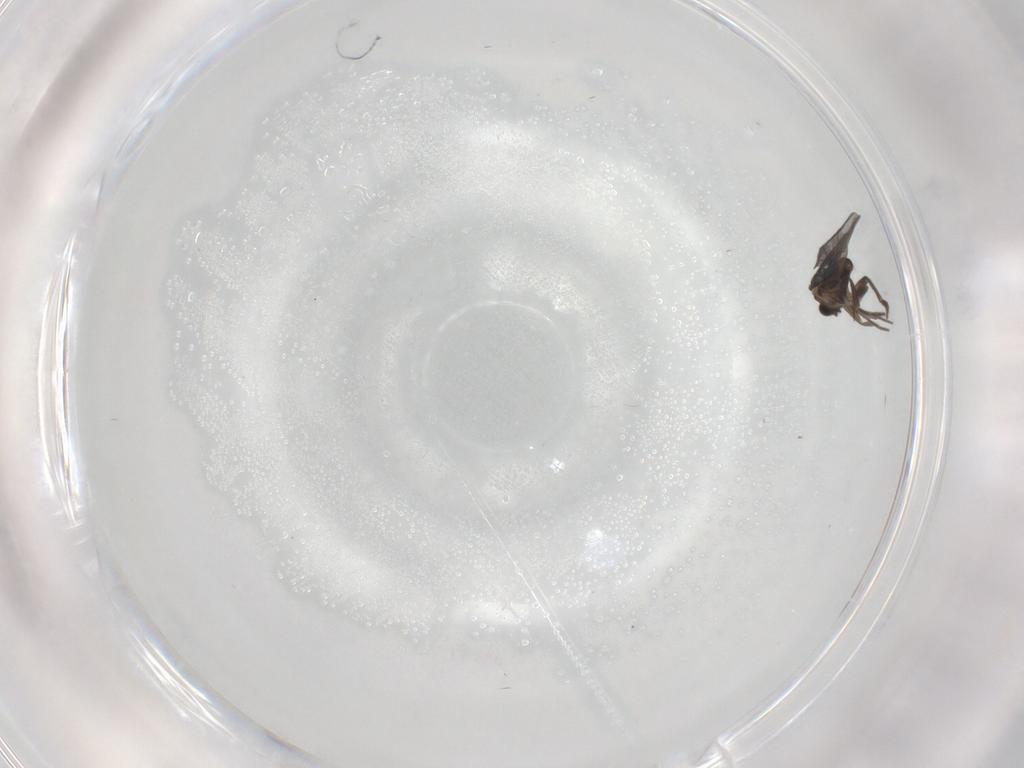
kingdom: Animalia
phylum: Arthropoda
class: Insecta
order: Diptera
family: Phoridae
